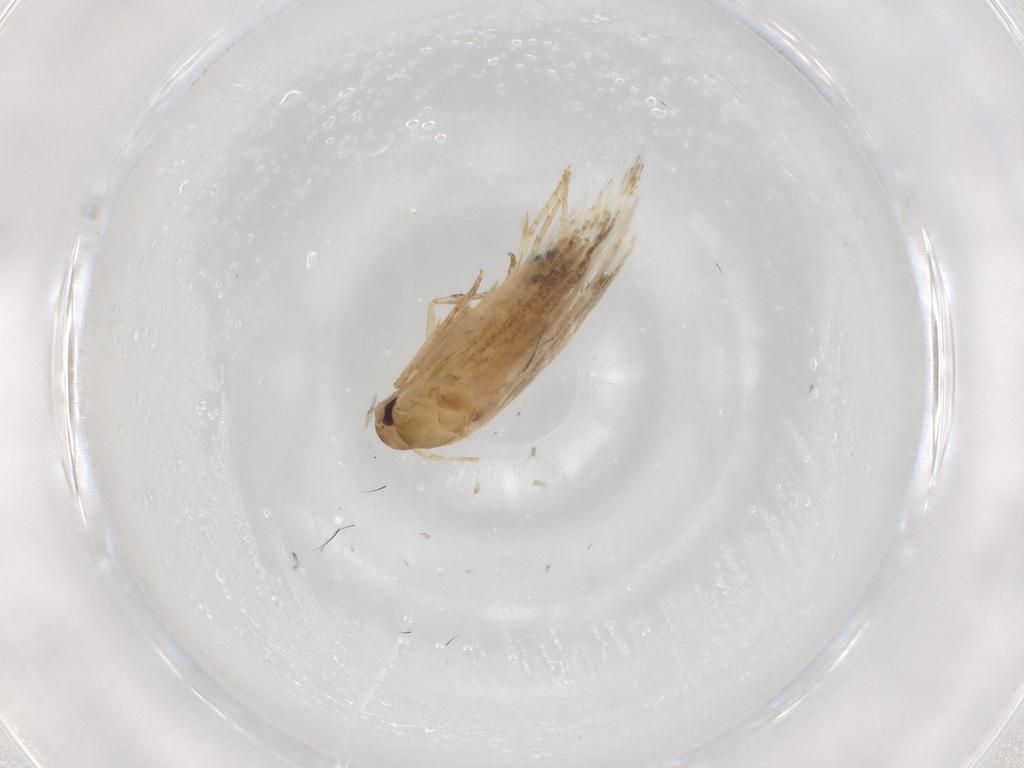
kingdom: Animalia
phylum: Arthropoda
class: Insecta
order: Lepidoptera
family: Cosmopterigidae
